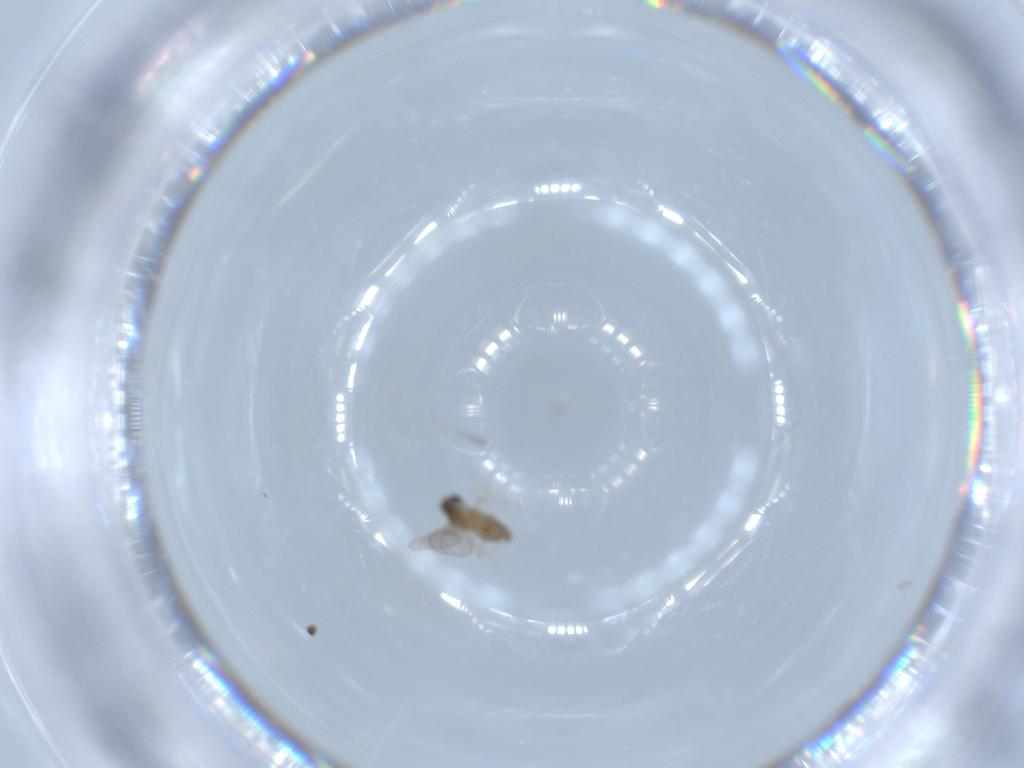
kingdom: Animalia
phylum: Arthropoda
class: Insecta
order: Diptera
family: Cecidomyiidae
